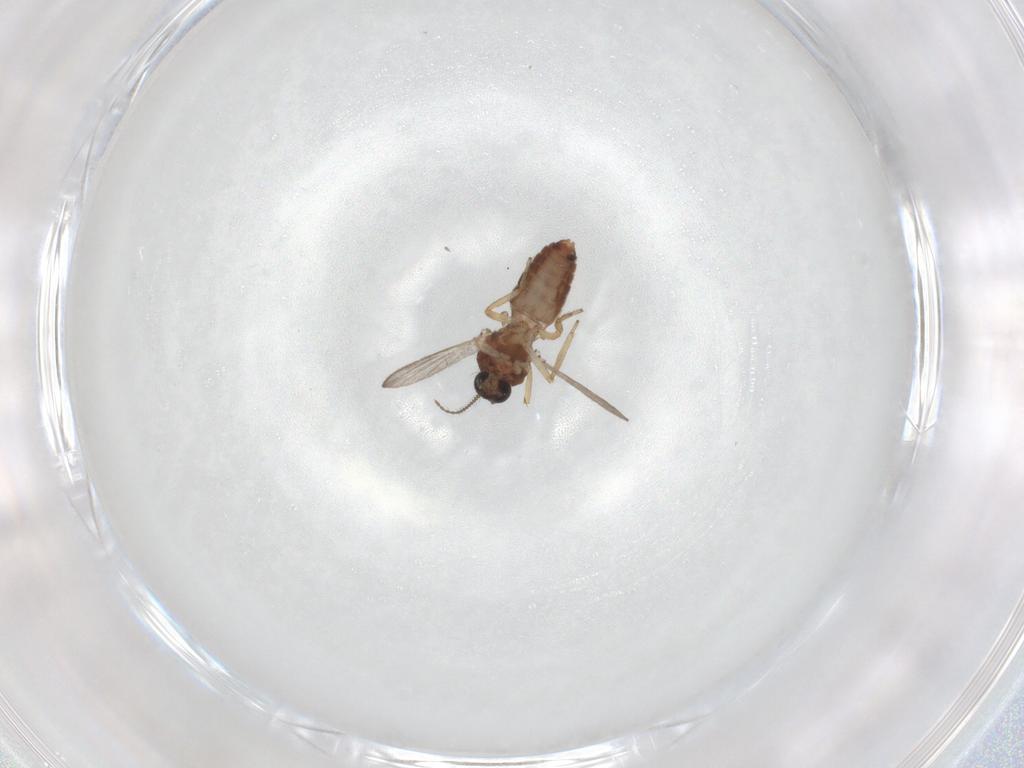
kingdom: Animalia
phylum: Arthropoda
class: Insecta
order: Diptera
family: Ceratopogonidae
